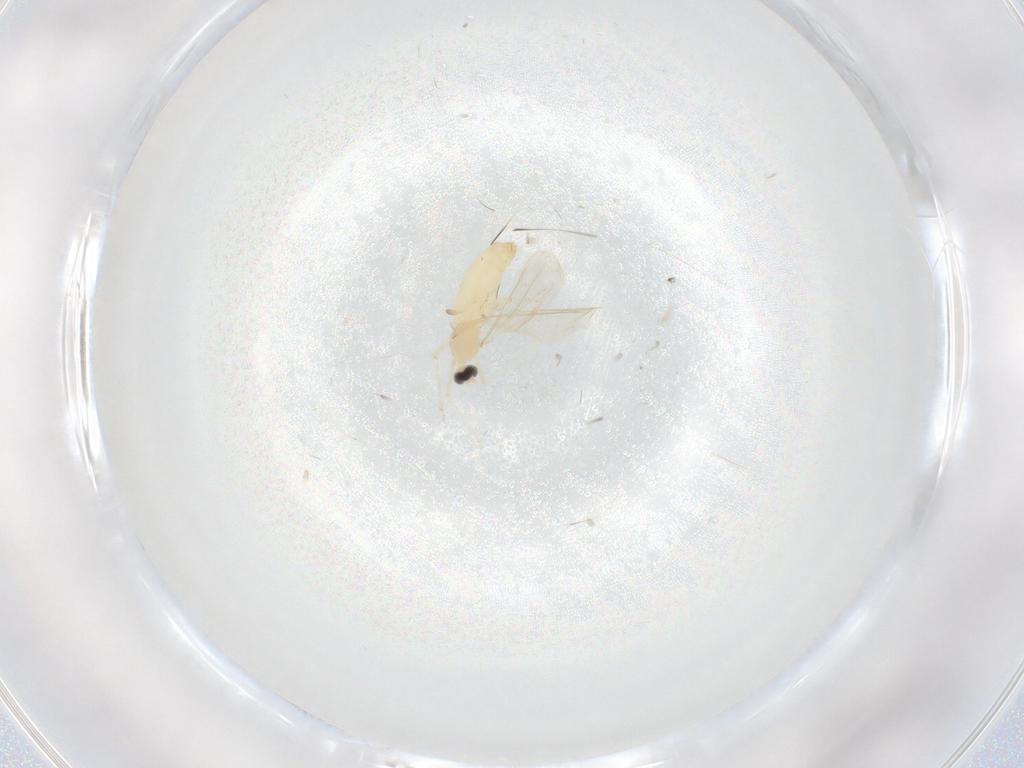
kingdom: Animalia
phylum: Arthropoda
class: Insecta
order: Diptera
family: Cecidomyiidae
